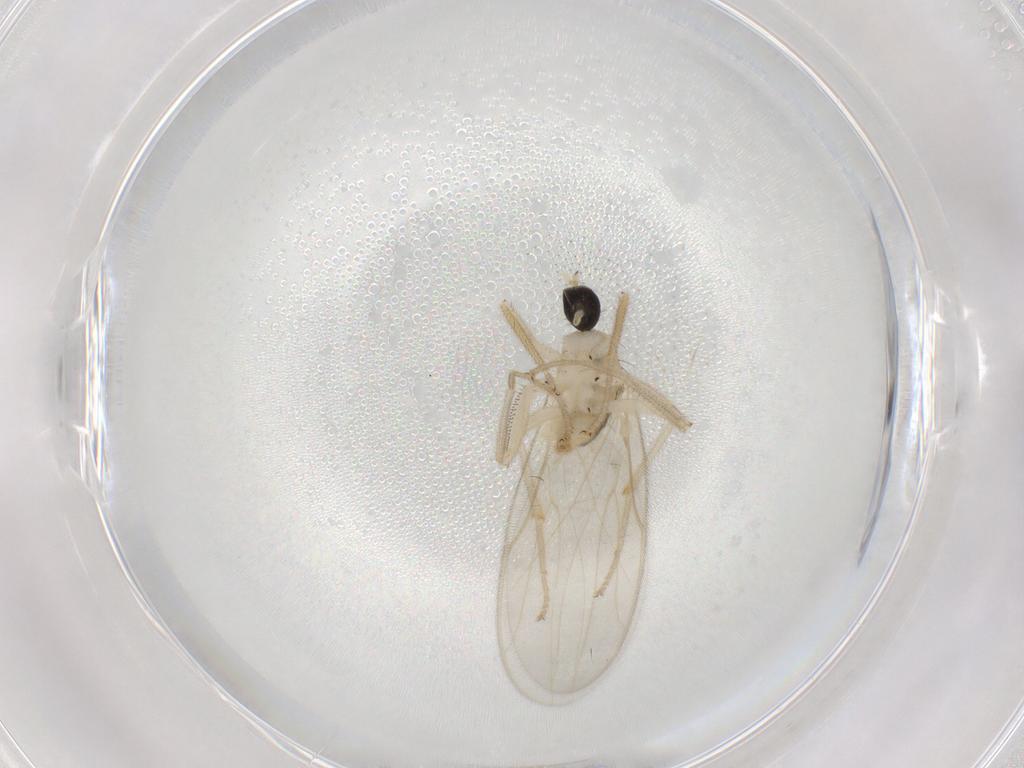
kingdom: Animalia
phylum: Arthropoda
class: Insecta
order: Diptera
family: Hybotidae
